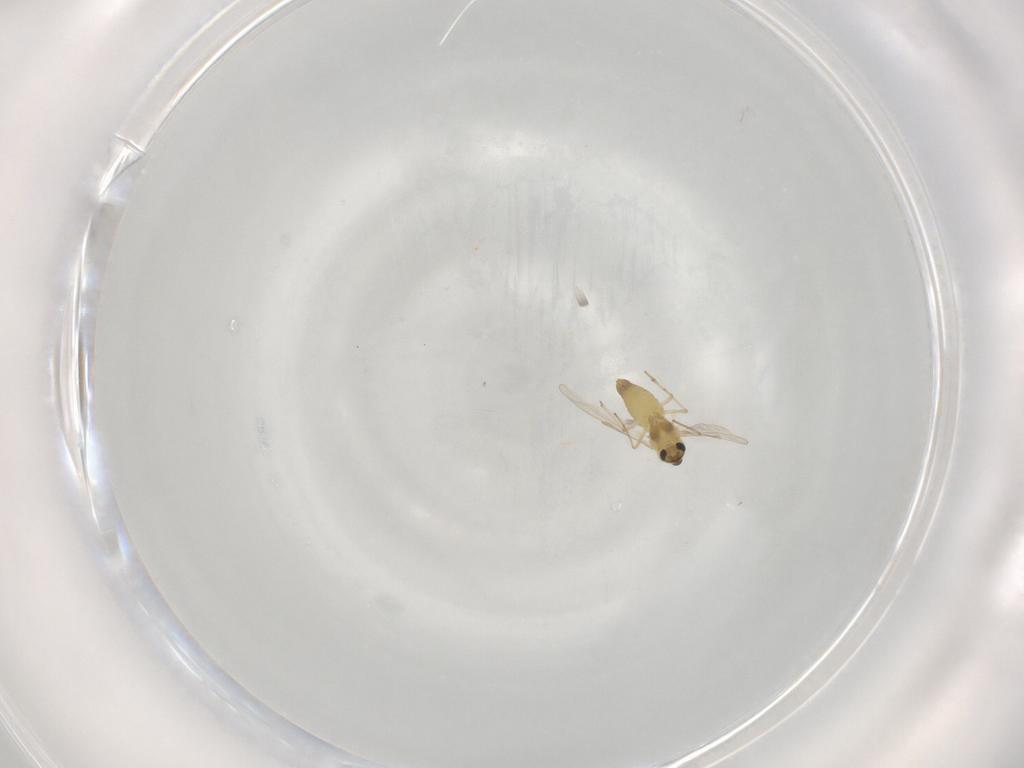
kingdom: Animalia
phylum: Arthropoda
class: Insecta
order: Diptera
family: Chironomidae
